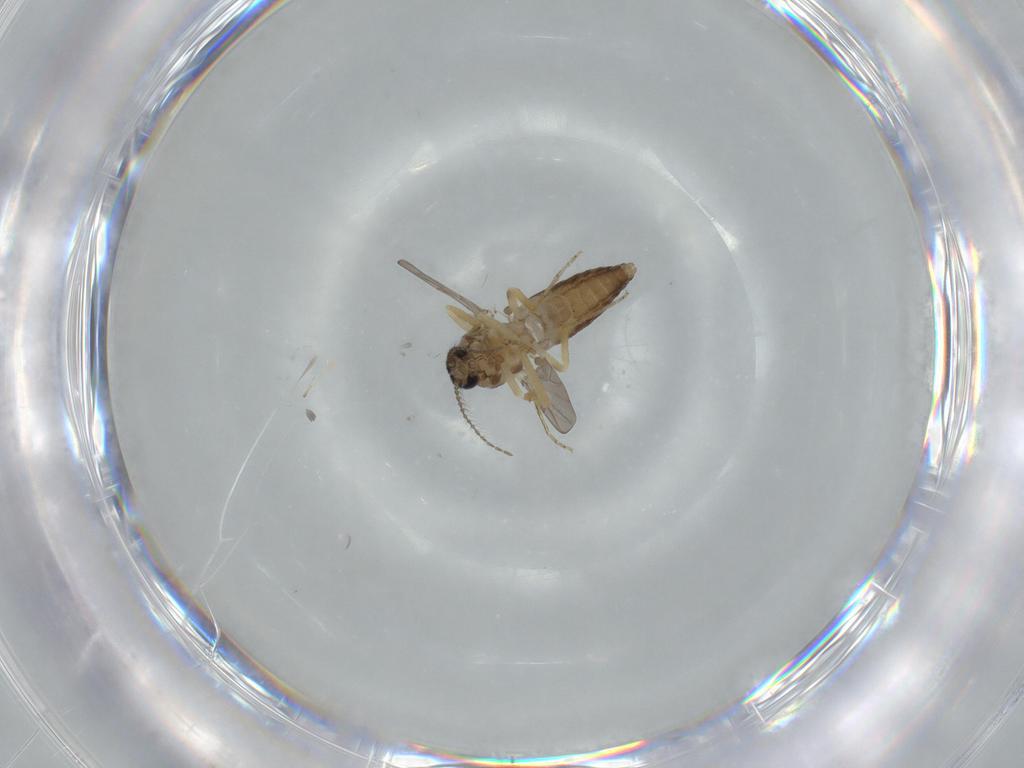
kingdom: Animalia
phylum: Arthropoda
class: Insecta
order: Diptera
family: Ceratopogonidae
